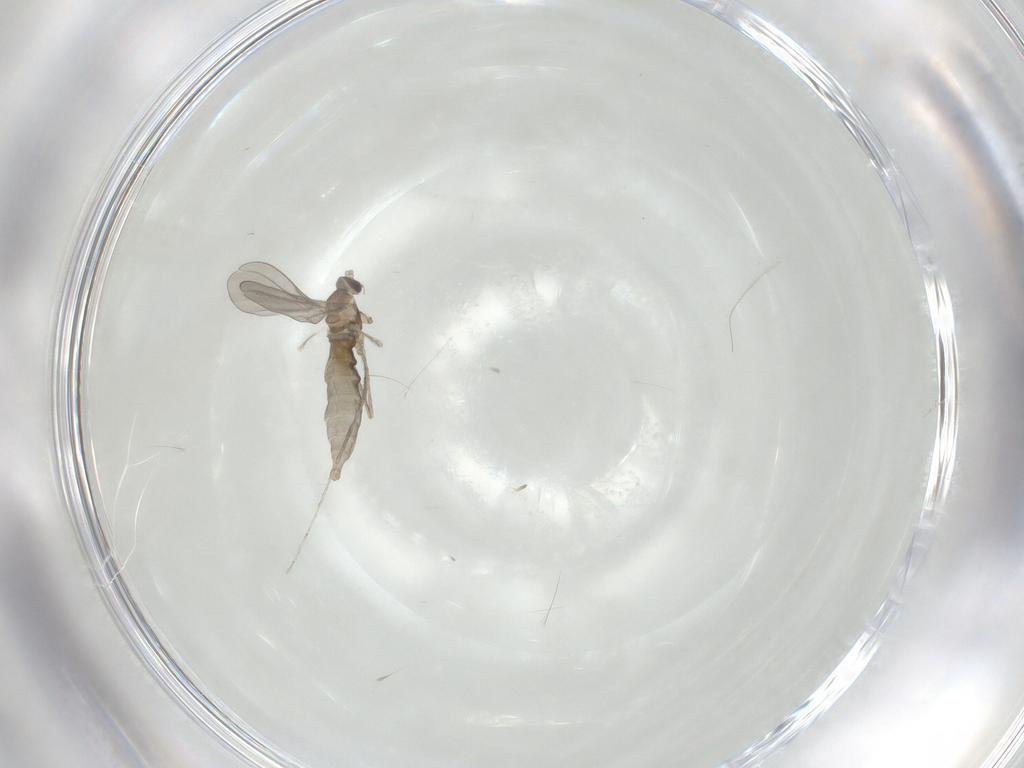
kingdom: Animalia
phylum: Arthropoda
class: Insecta
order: Diptera
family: Cecidomyiidae
